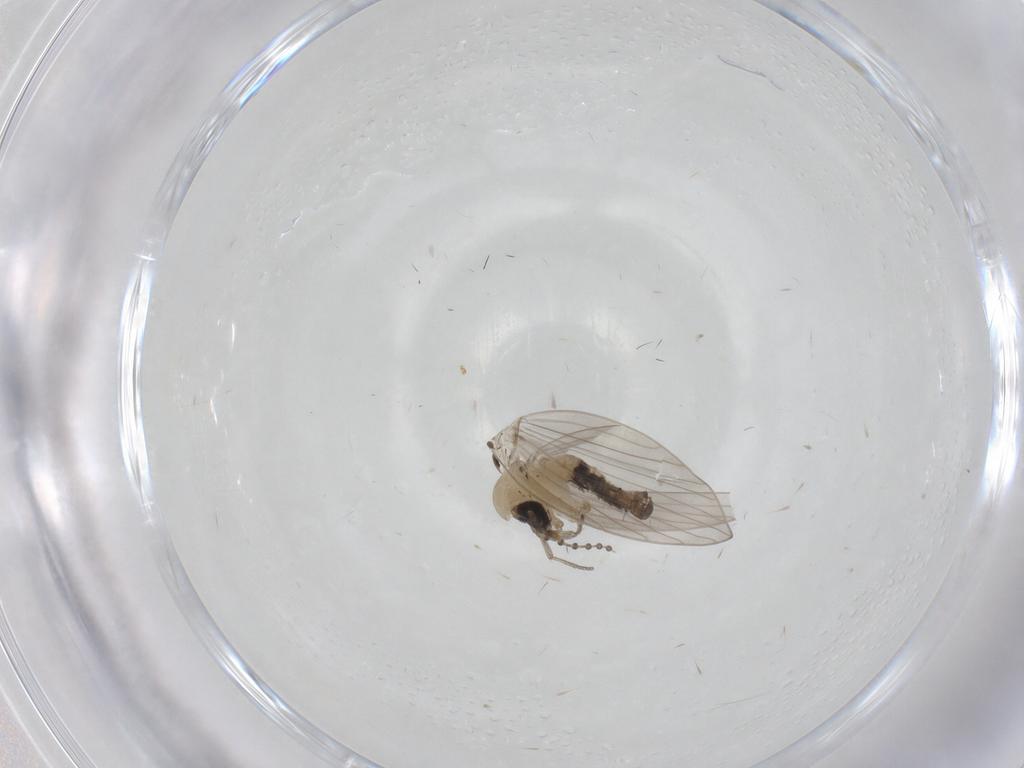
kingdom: Animalia
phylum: Arthropoda
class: Insecta
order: Diptera
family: Psychodidae
